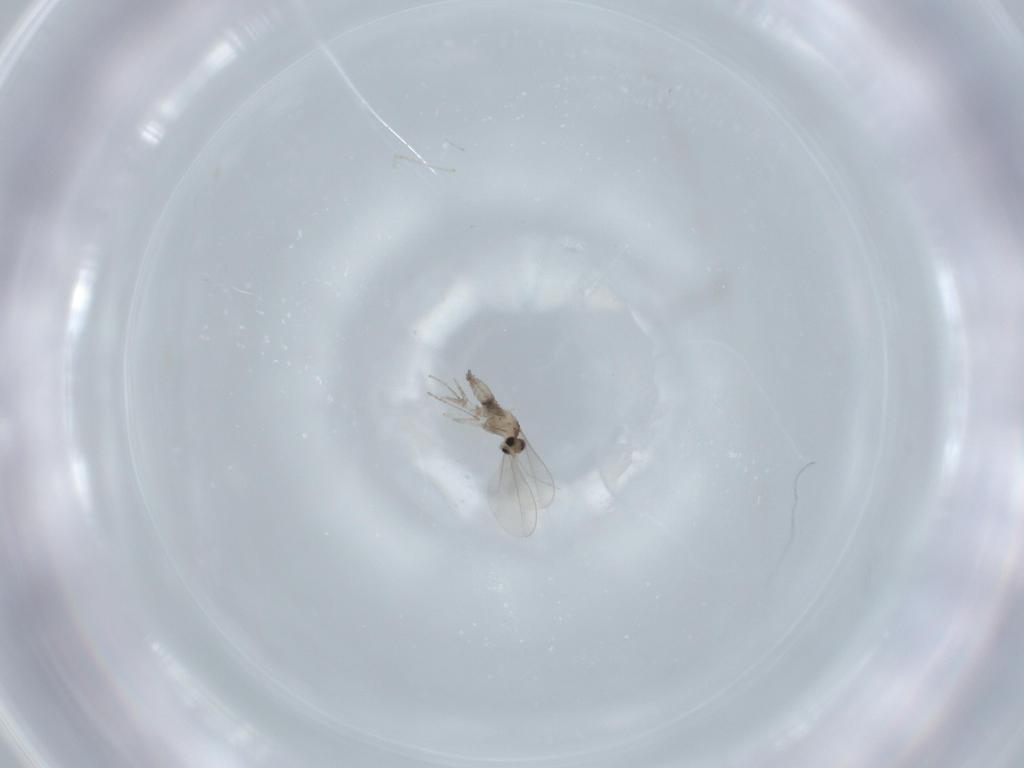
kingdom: Animalia
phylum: Arthropoda
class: Insecta
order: Diptera
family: Cecidomyiidae
